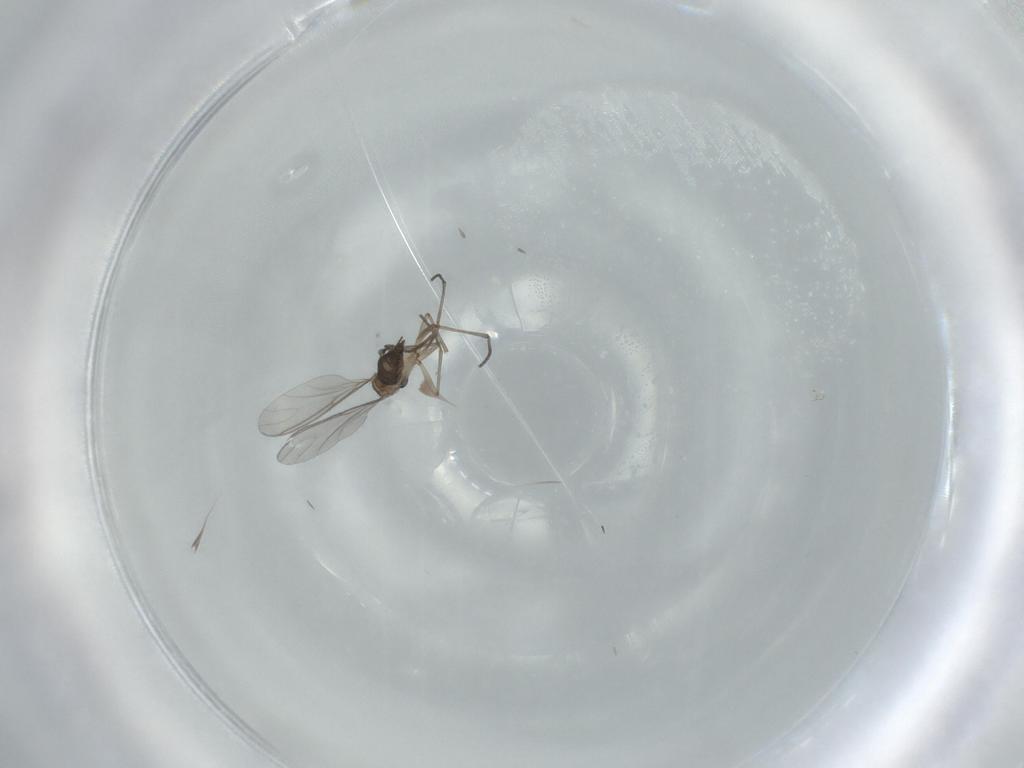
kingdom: Animalia
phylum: Arthropoda
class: Insecta
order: Diptera
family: Sciaridae
